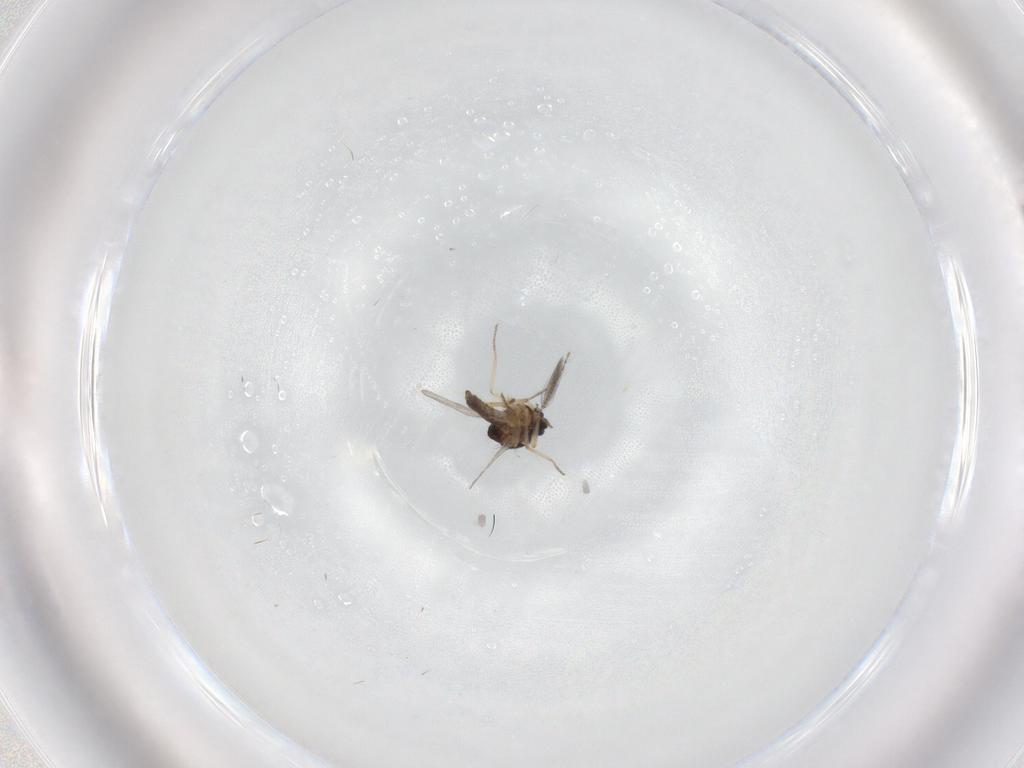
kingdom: Animalia
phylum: Arthropoda
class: Insecta
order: Diptera
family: Ceratopogonidae
